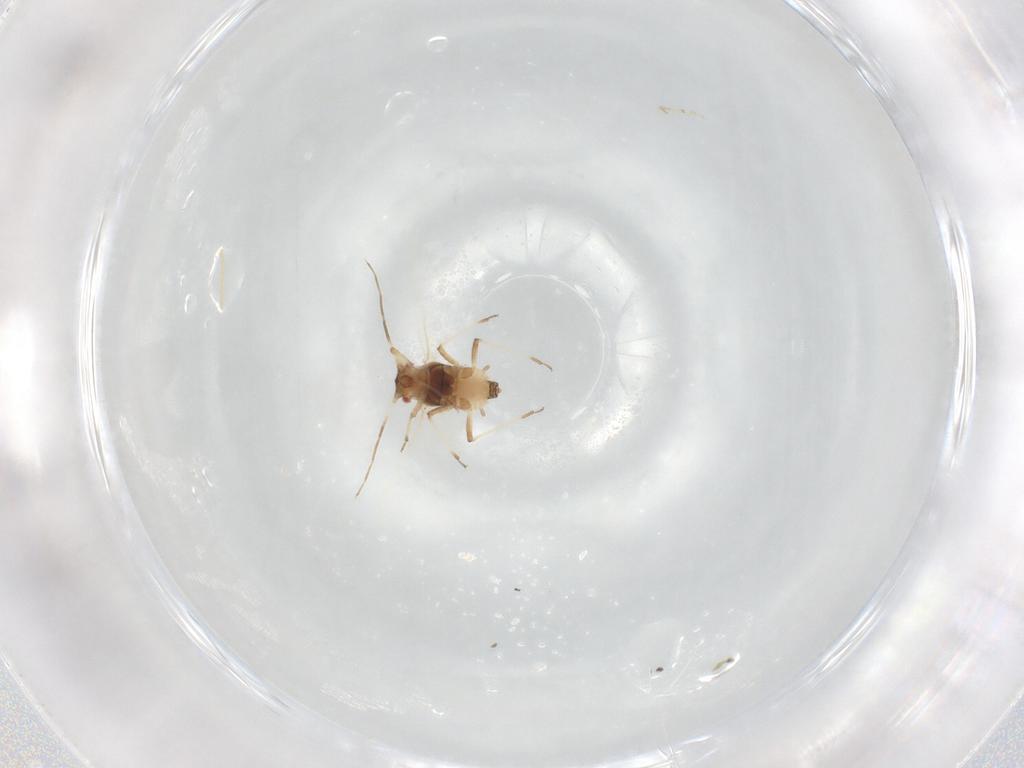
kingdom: Animalia
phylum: Arthropoda
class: Insecta
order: Hemiptera
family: Aphididae
